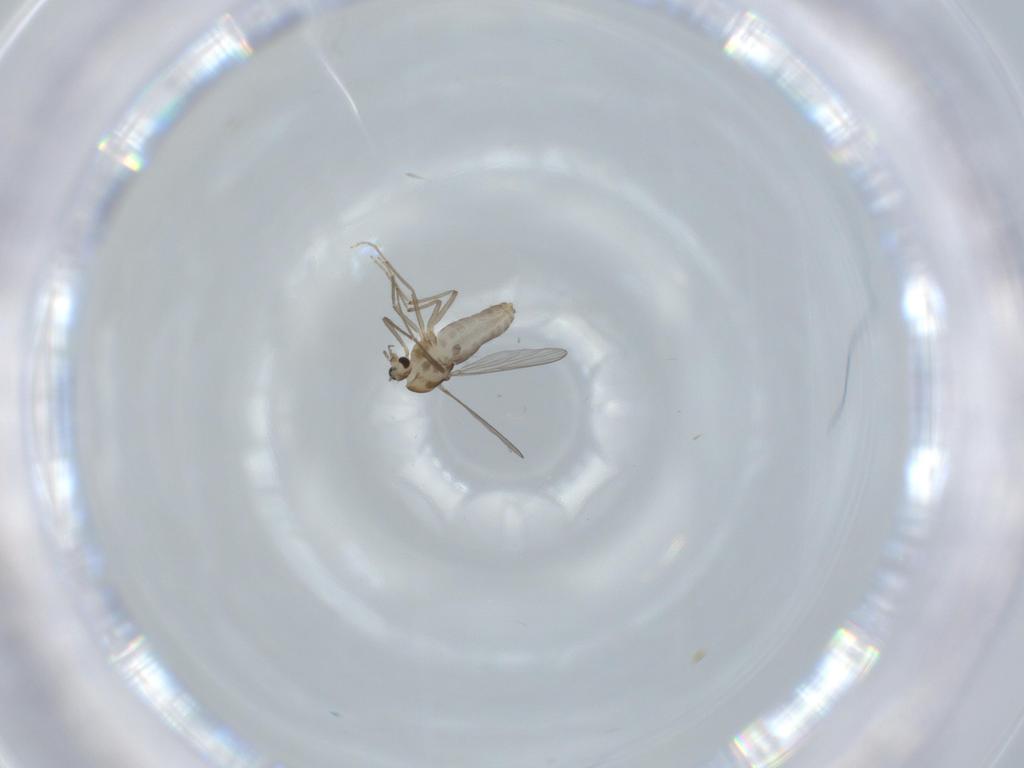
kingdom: Animalia
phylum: Arthropoda
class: Insecta
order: Diptera
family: Chironomidae
